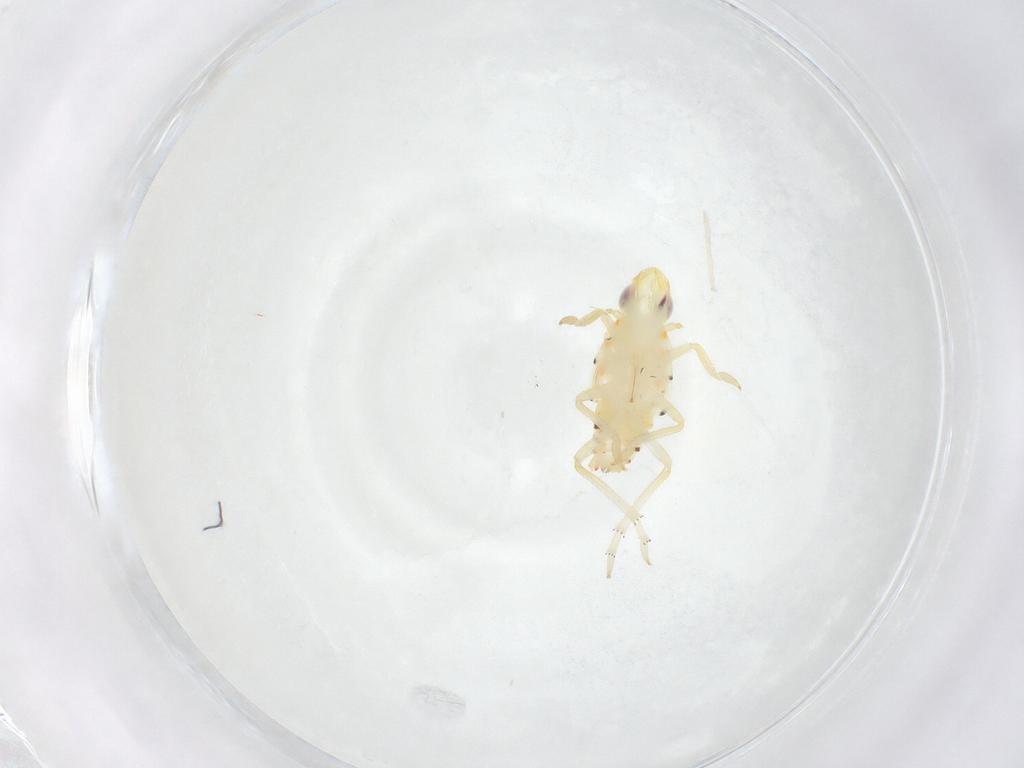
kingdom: Animalia
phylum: Arthropoda
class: Insecta
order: Hemiptera
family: Tropiduchidae
